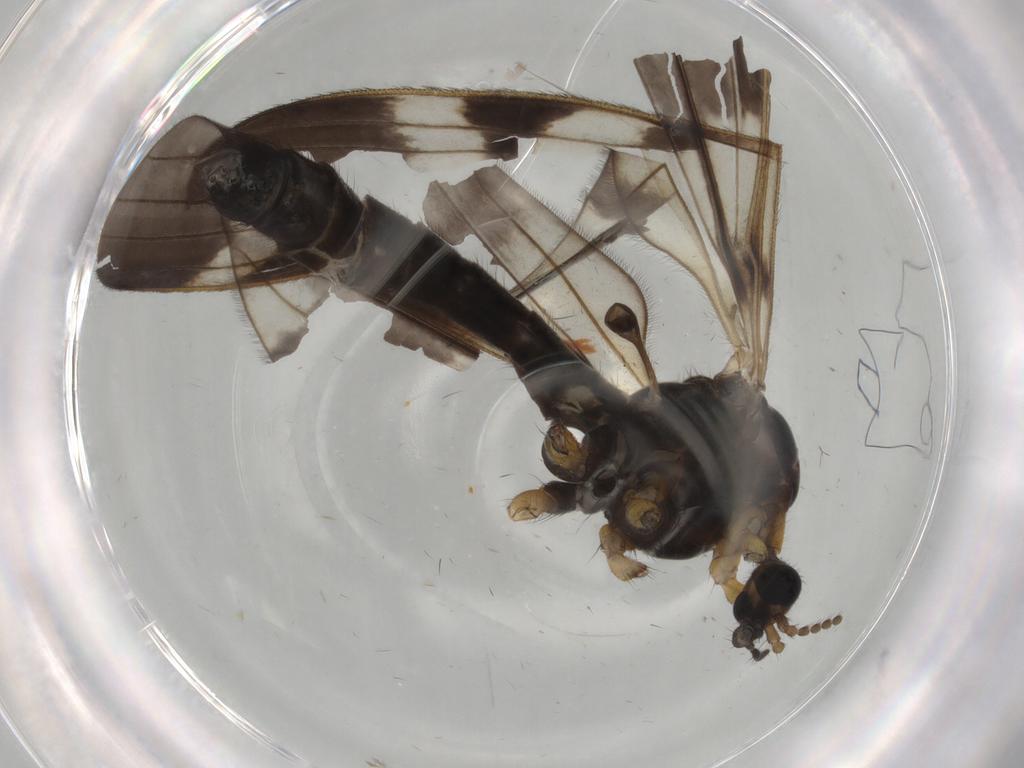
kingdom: Animalia
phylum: Arthropoda
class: Insecta
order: Diptera
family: Limoniidae
